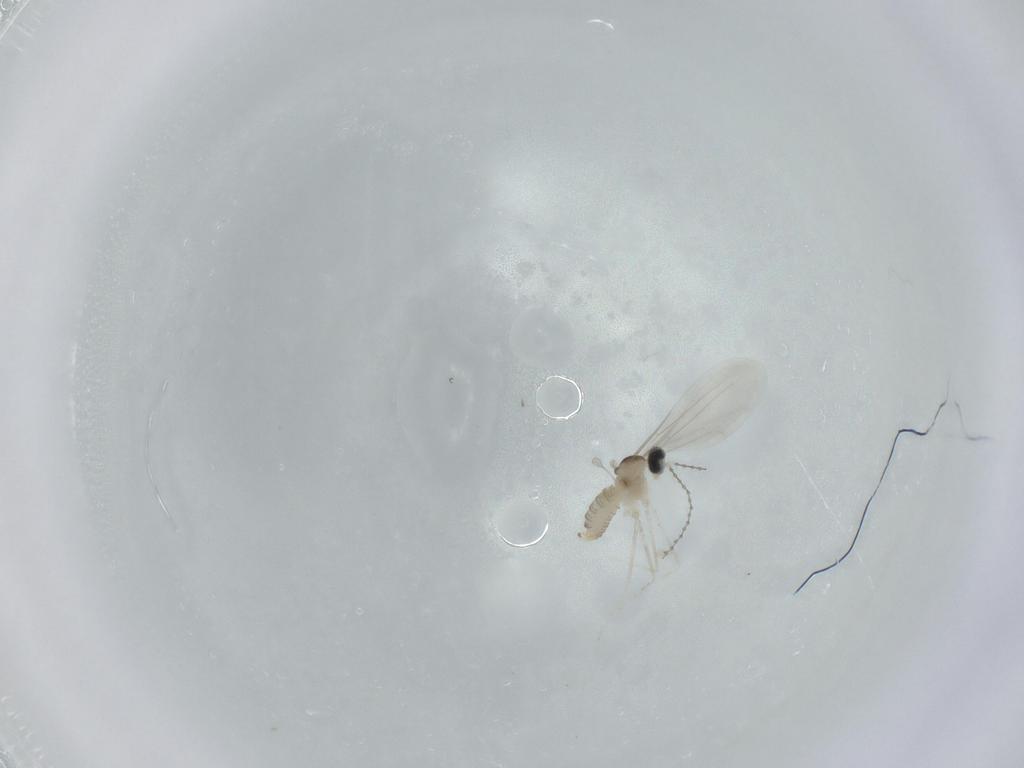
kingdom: Animalia
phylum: Arthropoda
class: Insecta
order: Diptera
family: Cecidomyiidae
